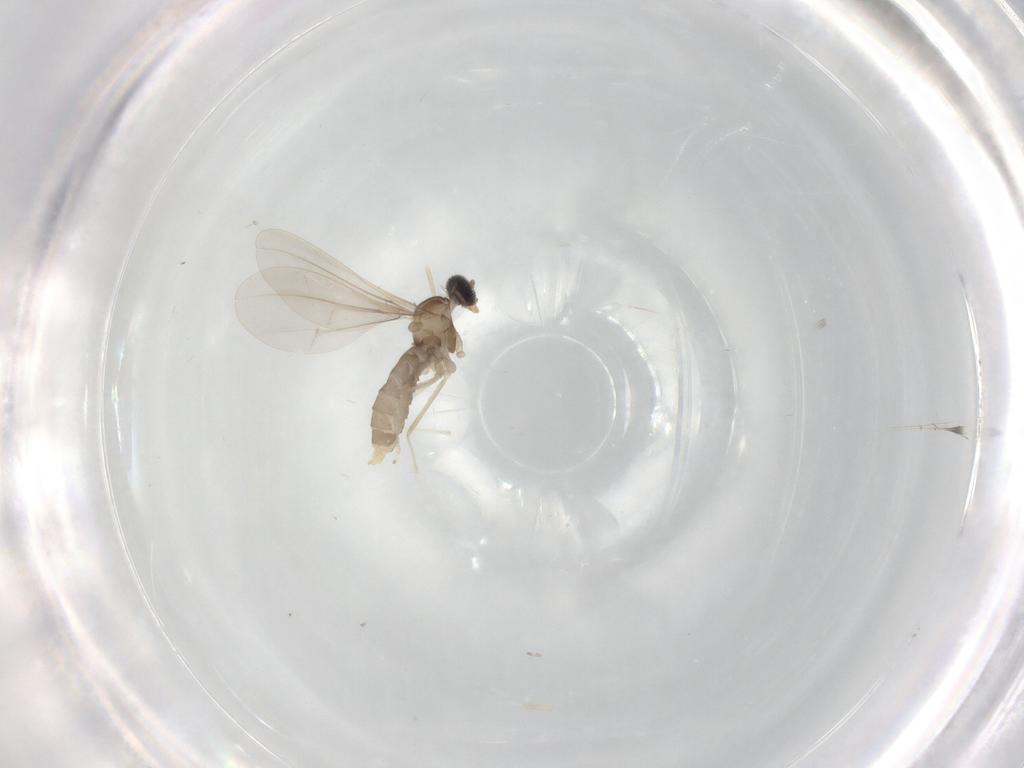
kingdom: Animalia
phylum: Arthropoda
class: Insecta
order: Diptera
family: Cecidomyiidae
